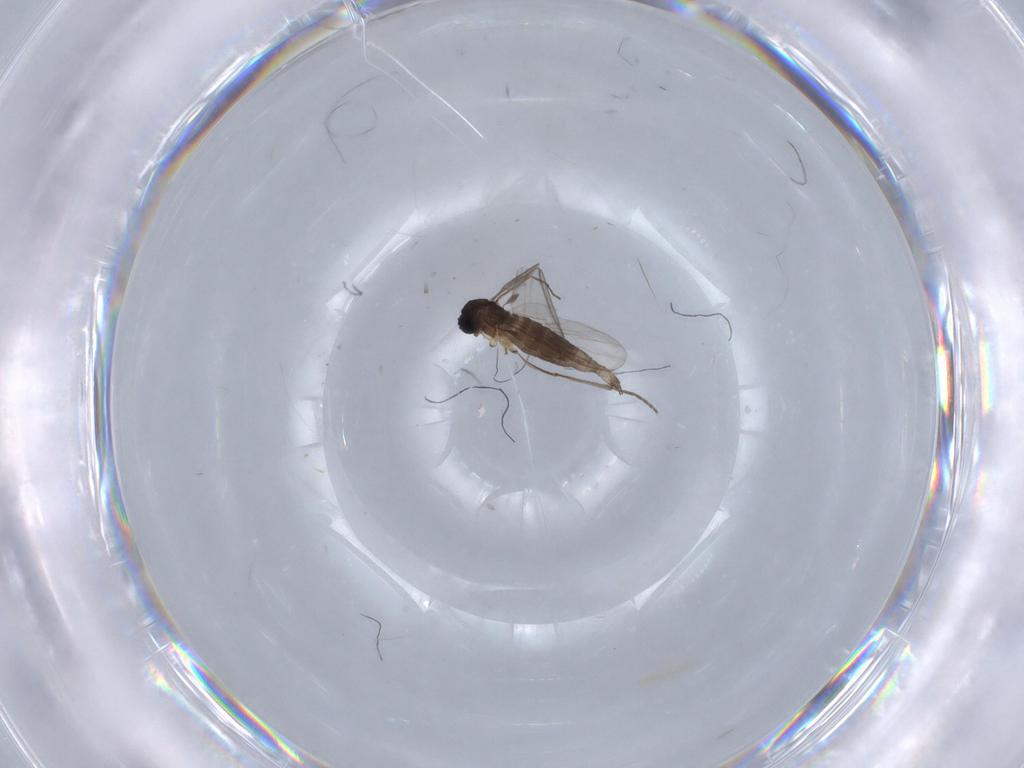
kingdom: Animalia
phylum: Arthropoda
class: Insecta
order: Diptera
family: Sciaridae
